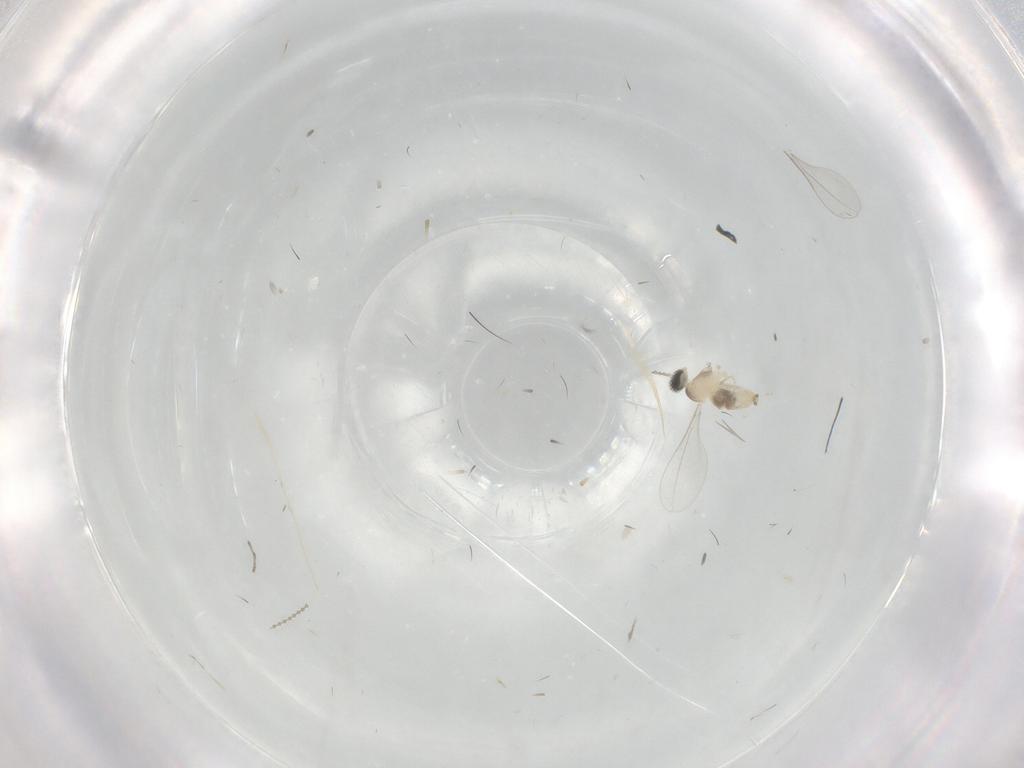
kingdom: Animalia
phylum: Arthropoda
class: Insecta
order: Diptera
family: Cecidomyiidae
